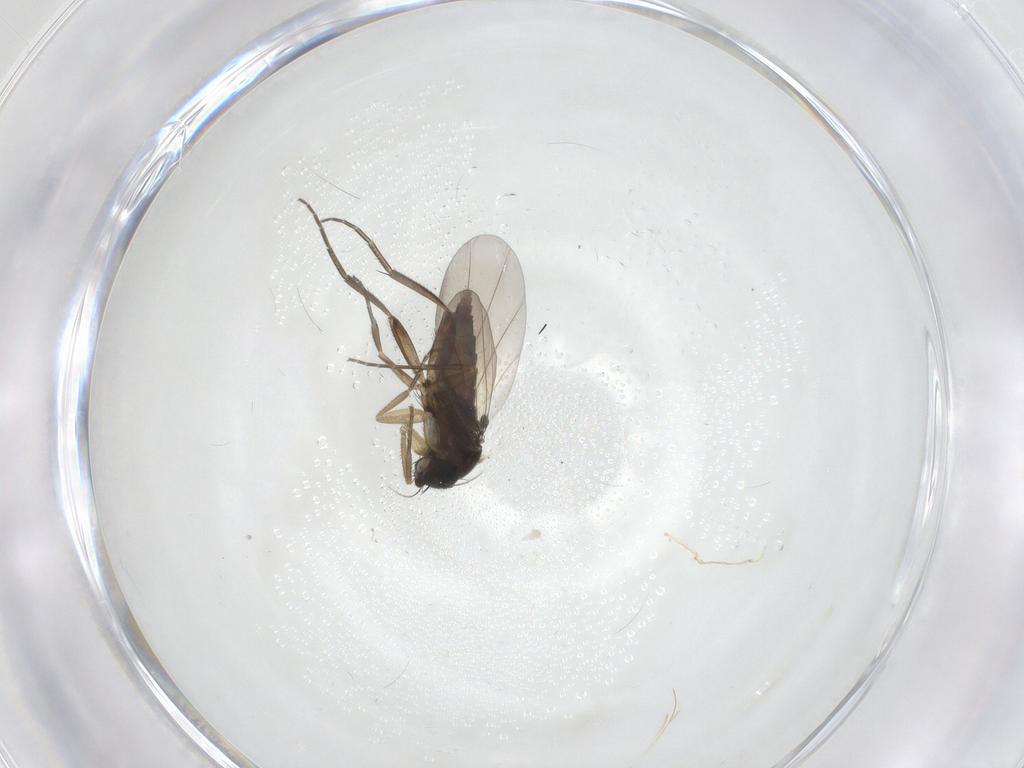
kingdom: Animalia
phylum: Arthropoda
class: Insecta
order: Diptera
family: Phoridae
